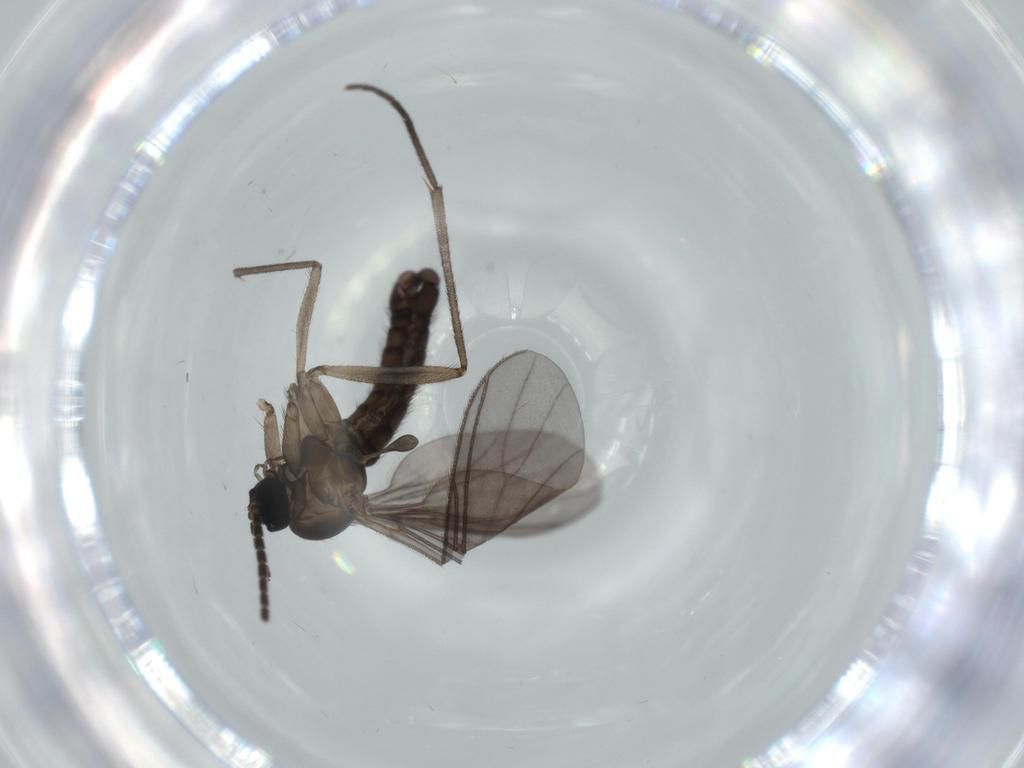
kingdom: Animalia
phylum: Arthropoda
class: Insecta
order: Diptera
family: Sciaridae
